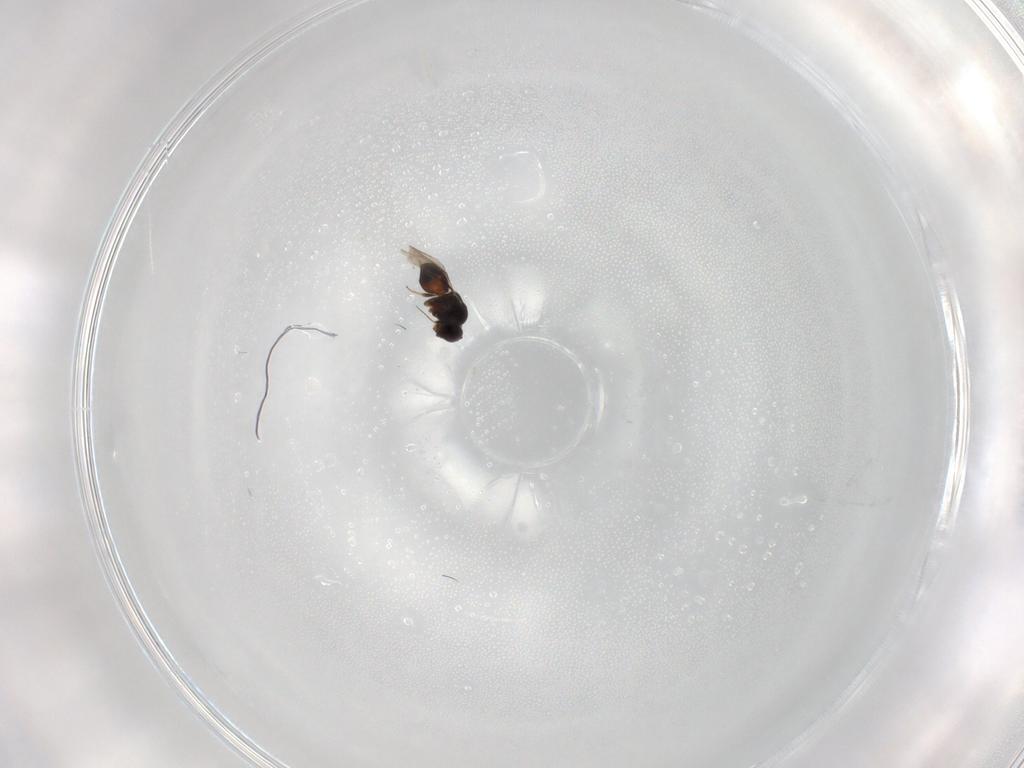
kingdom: Animalia
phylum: Arthropoda
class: Insecta
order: Hymenoptera
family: Ceraphronidae
